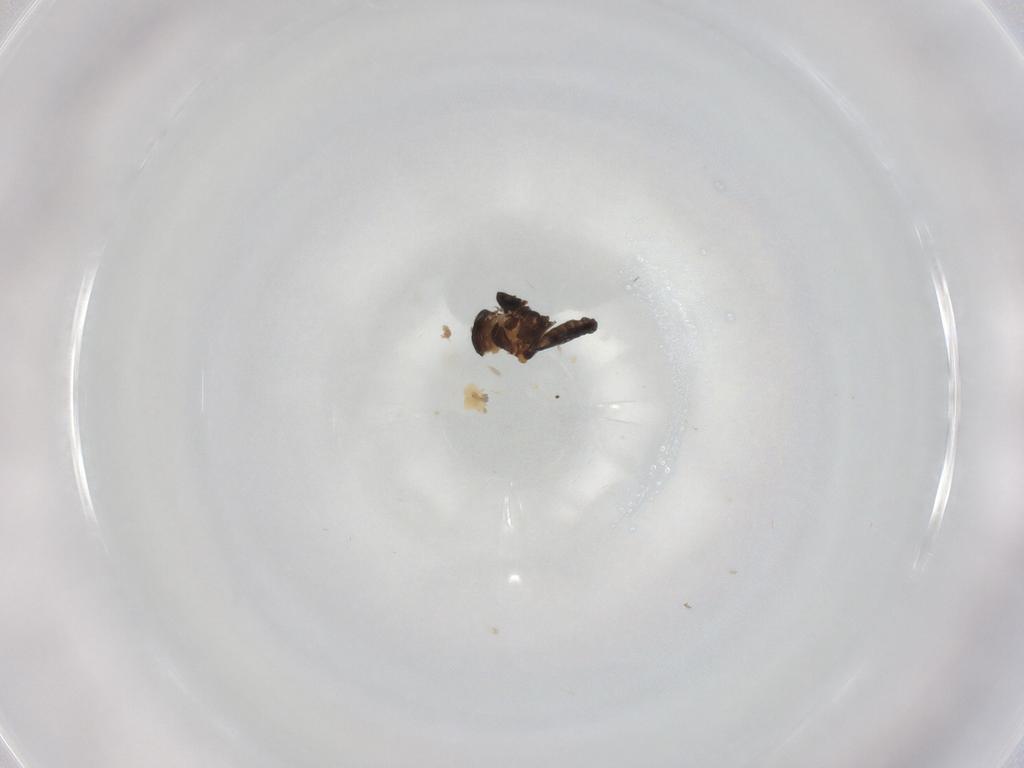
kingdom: Animalia
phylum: Arthropoda
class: Insecta
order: Diptera
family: Ceratopogonidae
